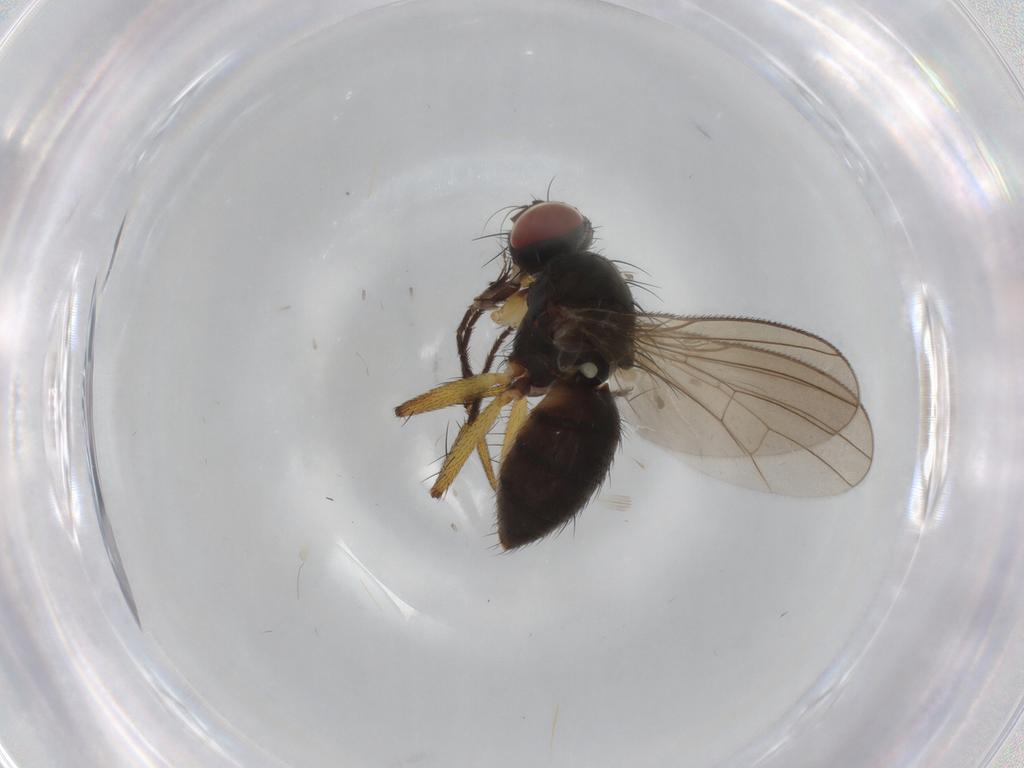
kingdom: Animalia
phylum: Arthropoda
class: Insecta
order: Diptera
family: Muscidae
